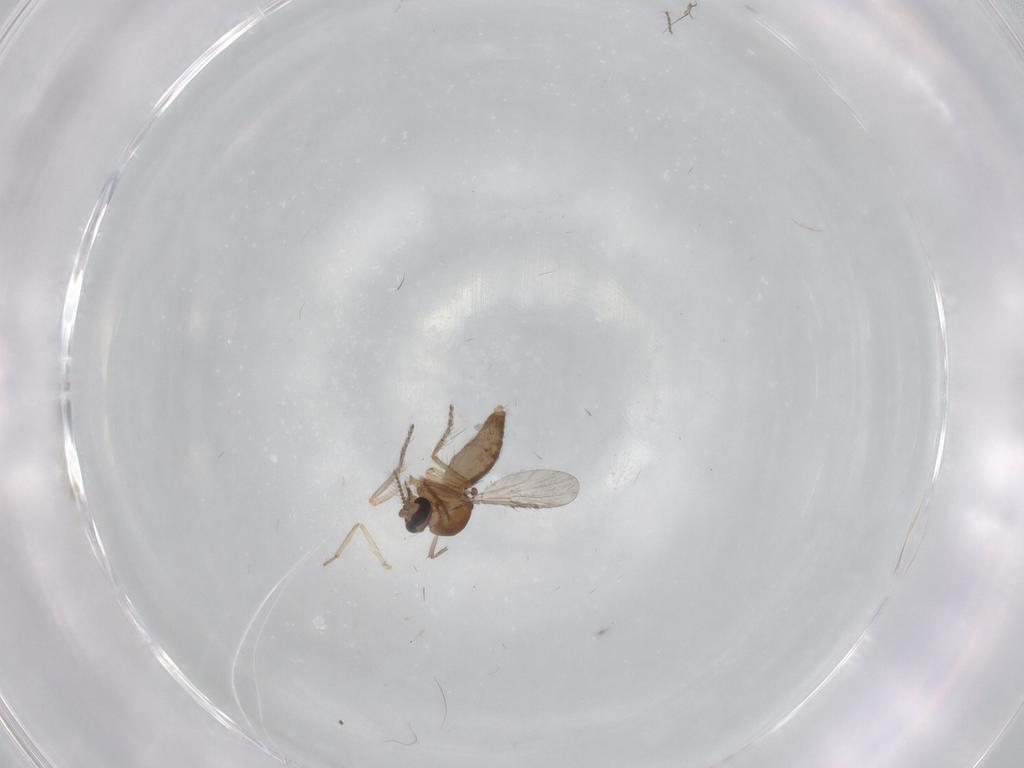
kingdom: Animalia
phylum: Arthropoda
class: Insecta
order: Diptera
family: Ceratopogonidae
